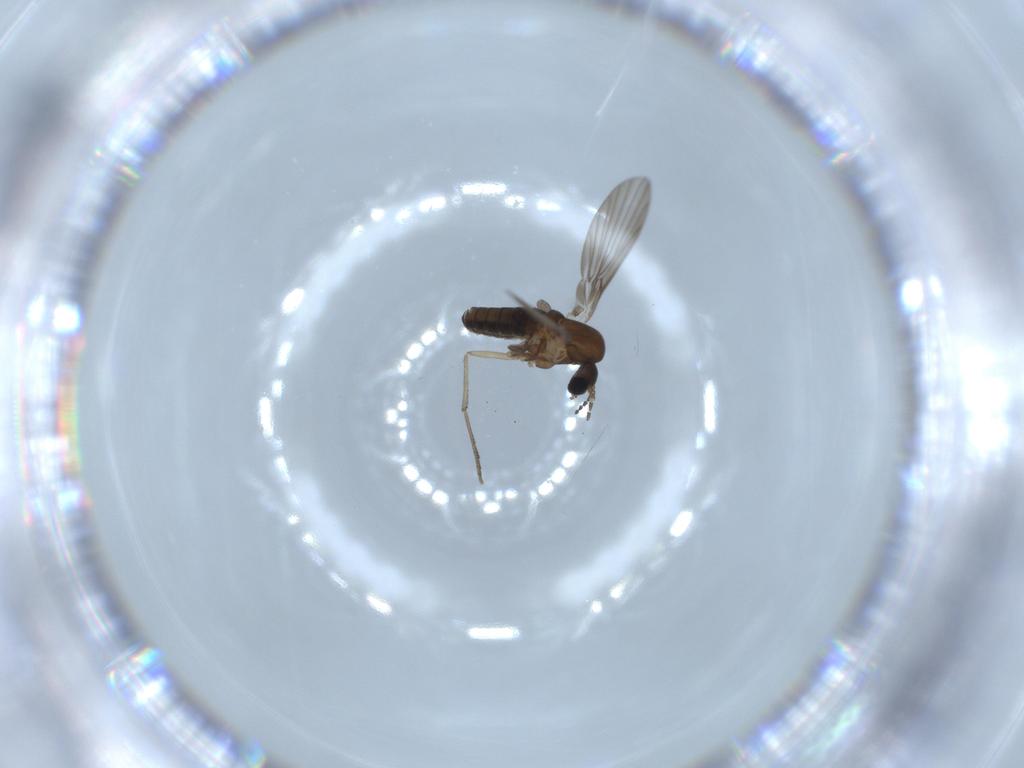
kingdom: Animalia
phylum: Arthropoda
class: Insecta
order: Diptera
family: Psychodidae
